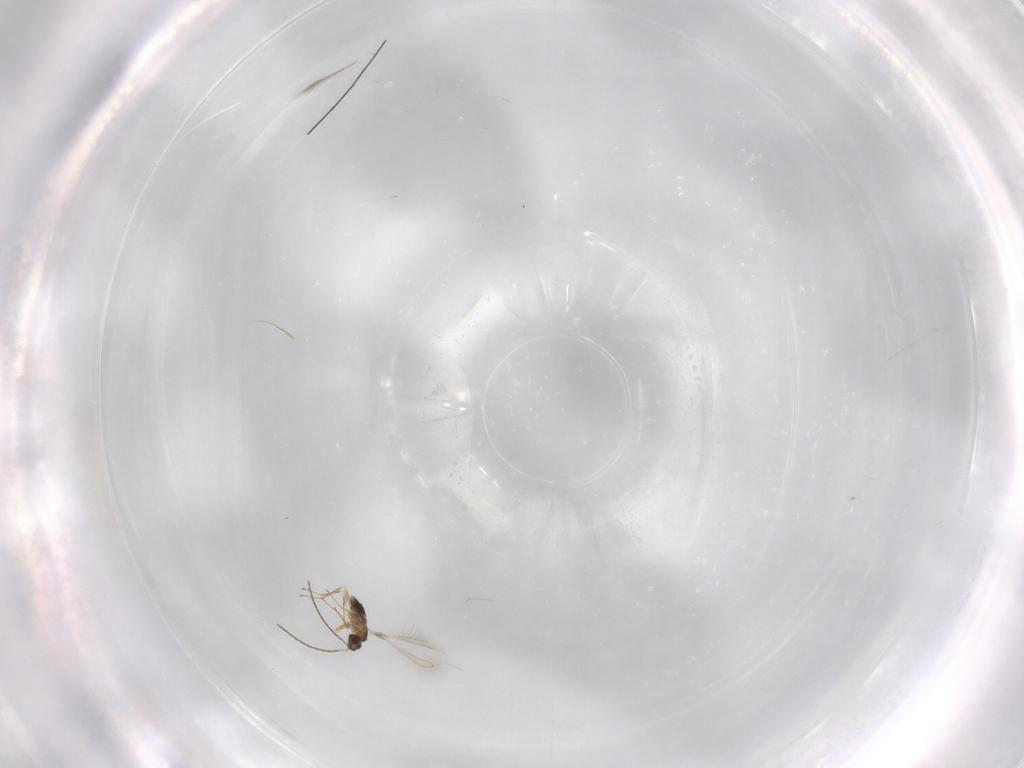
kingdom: Animalia
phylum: Arthropoda
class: Insecta
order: Hymenoptera
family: Mymaridae
